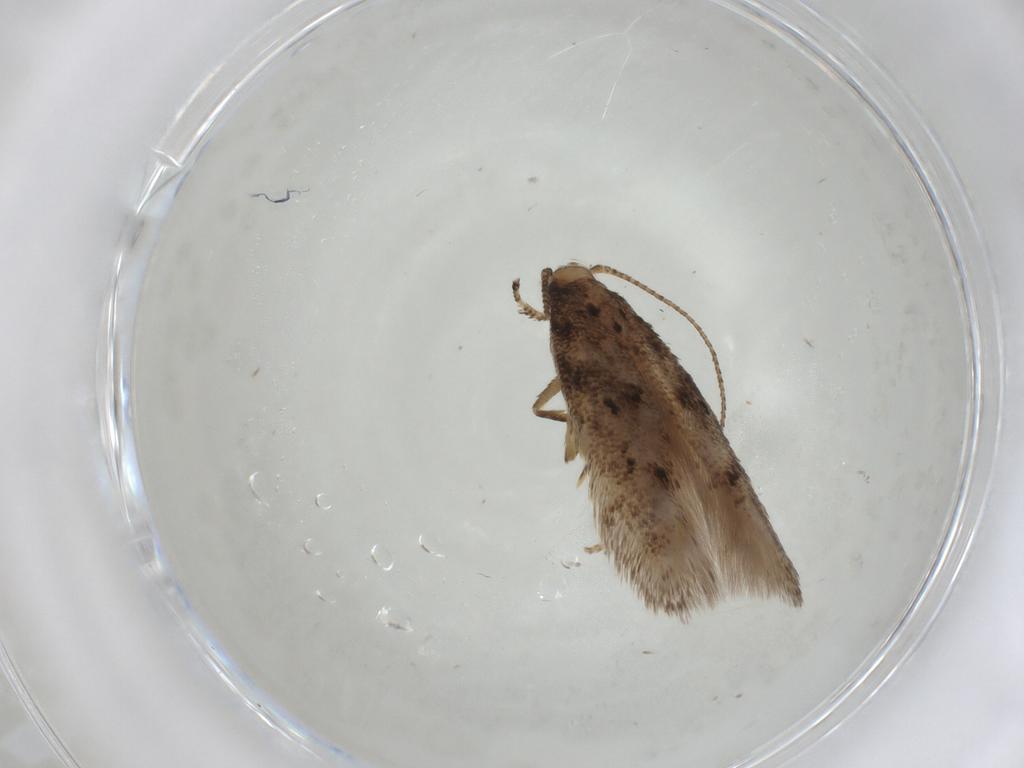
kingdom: Animalia
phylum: Arthropoda
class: Insecta
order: Lepidoptera
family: Gelechiidae
